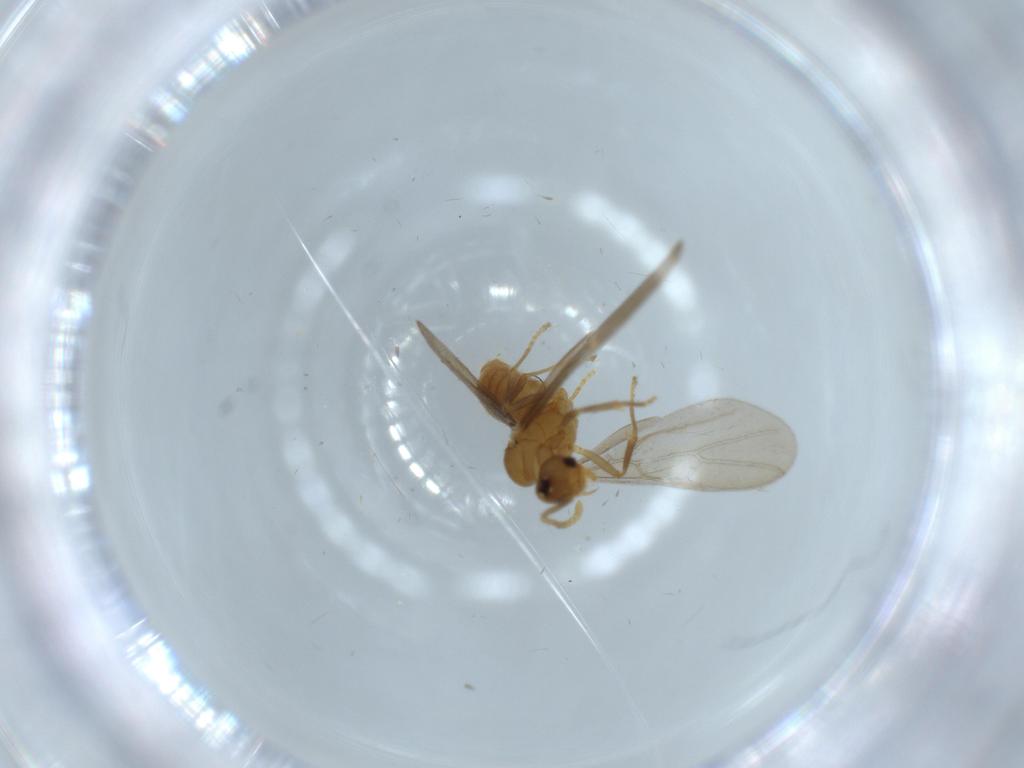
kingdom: Animalia
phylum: Arthropoda
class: Insecta
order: Hymenoptera
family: Formicidae
